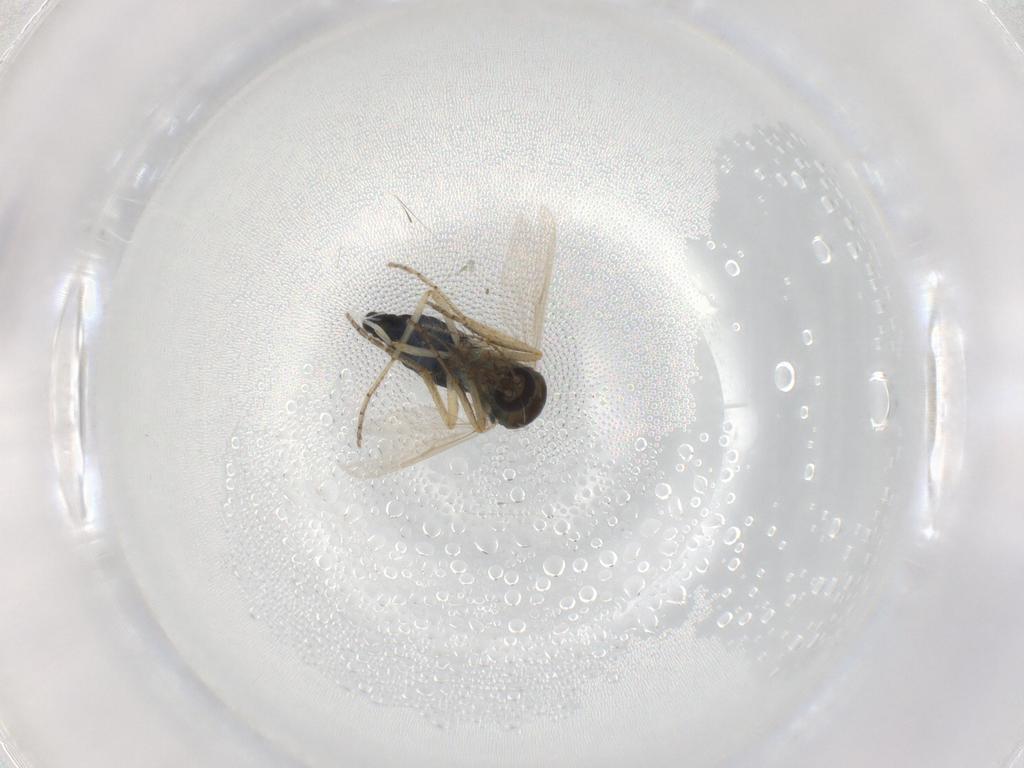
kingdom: Animalia
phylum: Arthropoda
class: Insecta
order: Diptera
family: Ceratopogonidae
